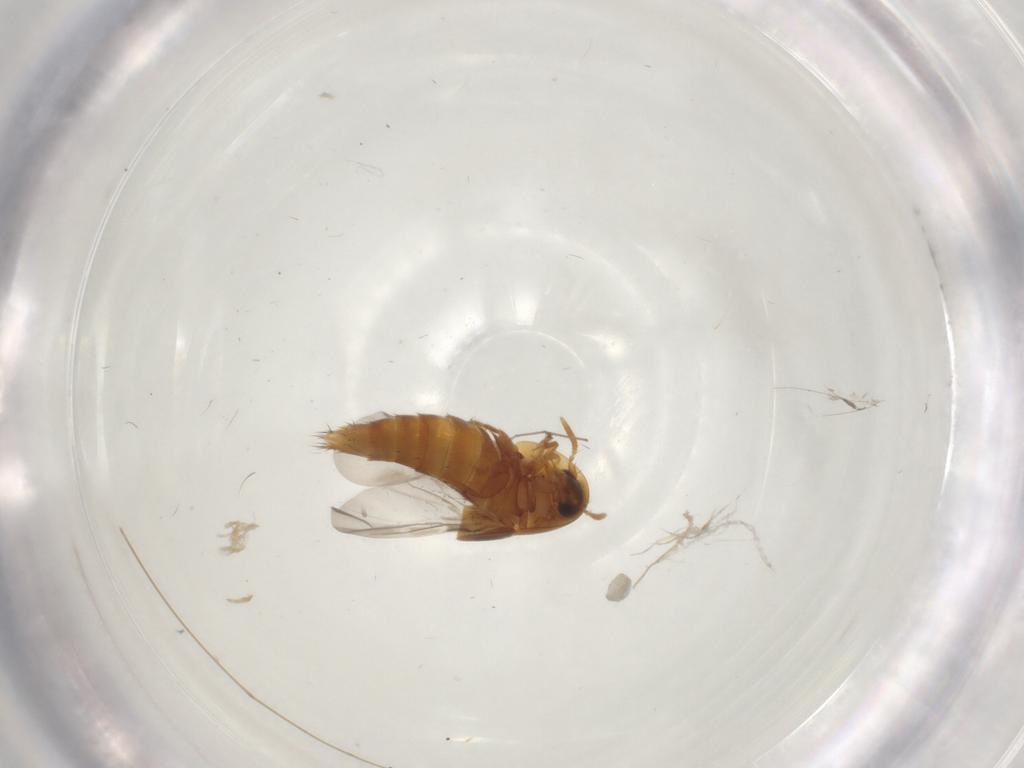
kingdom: Animalia
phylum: Arthropoda
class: Insecta
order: Coleoptera
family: Staphylinidae
